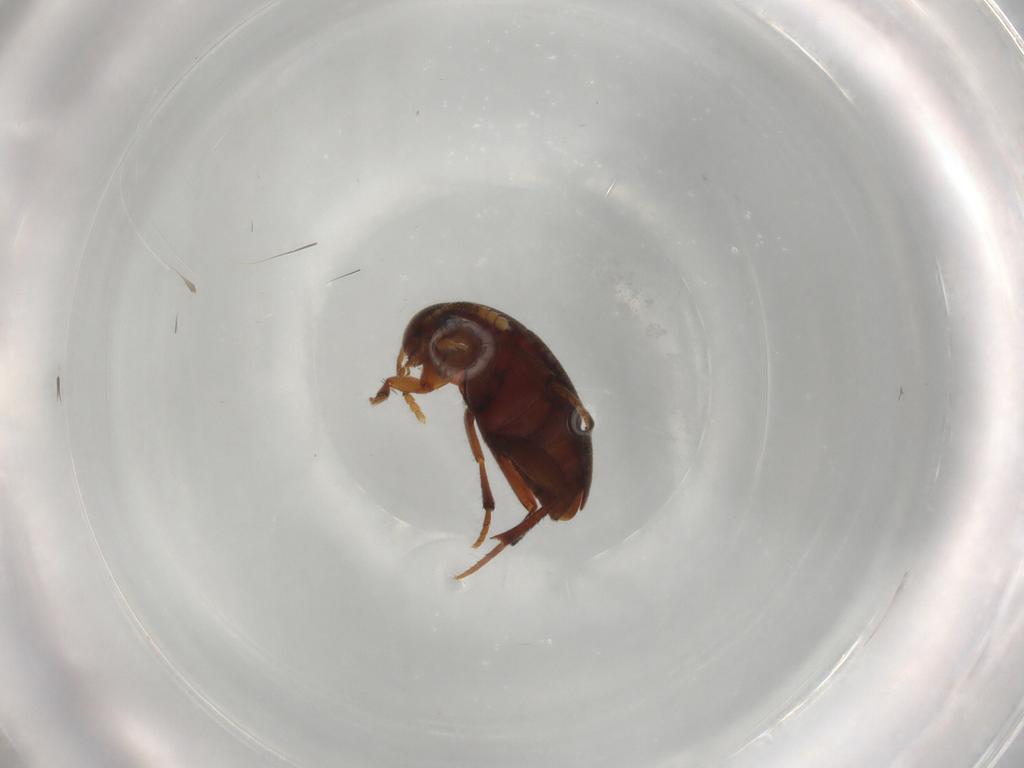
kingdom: Animalia
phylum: Arthropoda
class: Insecta
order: Coleoptera
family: Leiodidae
